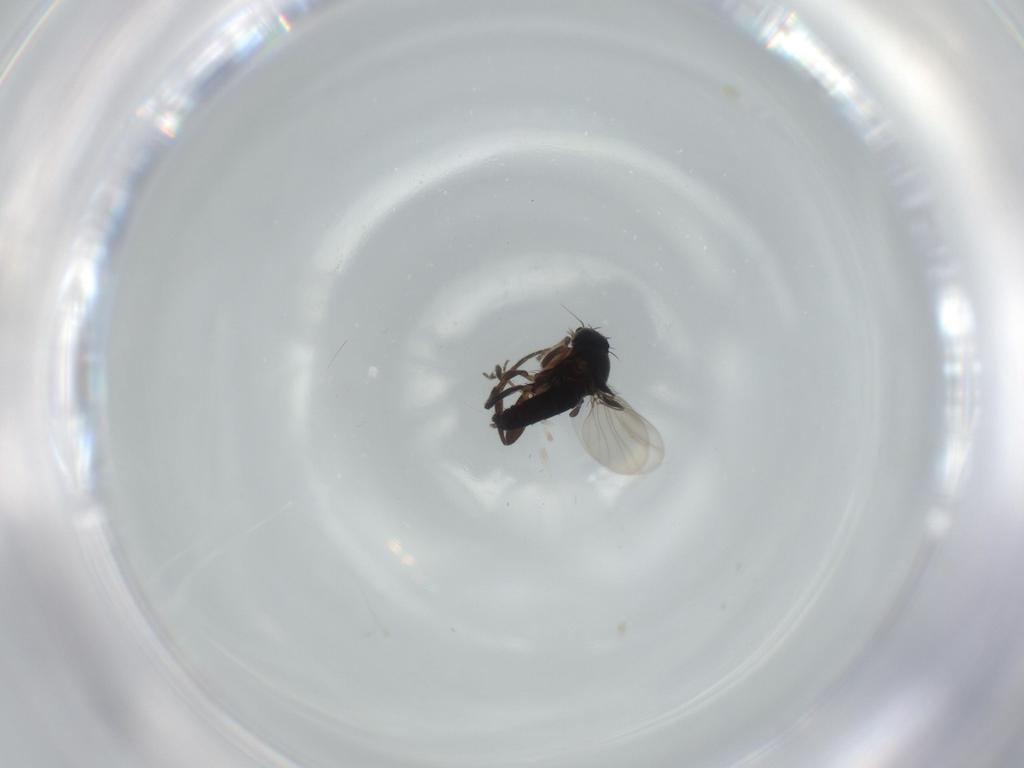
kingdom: Animalia
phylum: Arthropoda
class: Insecta
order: Diptera
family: Phoridae
